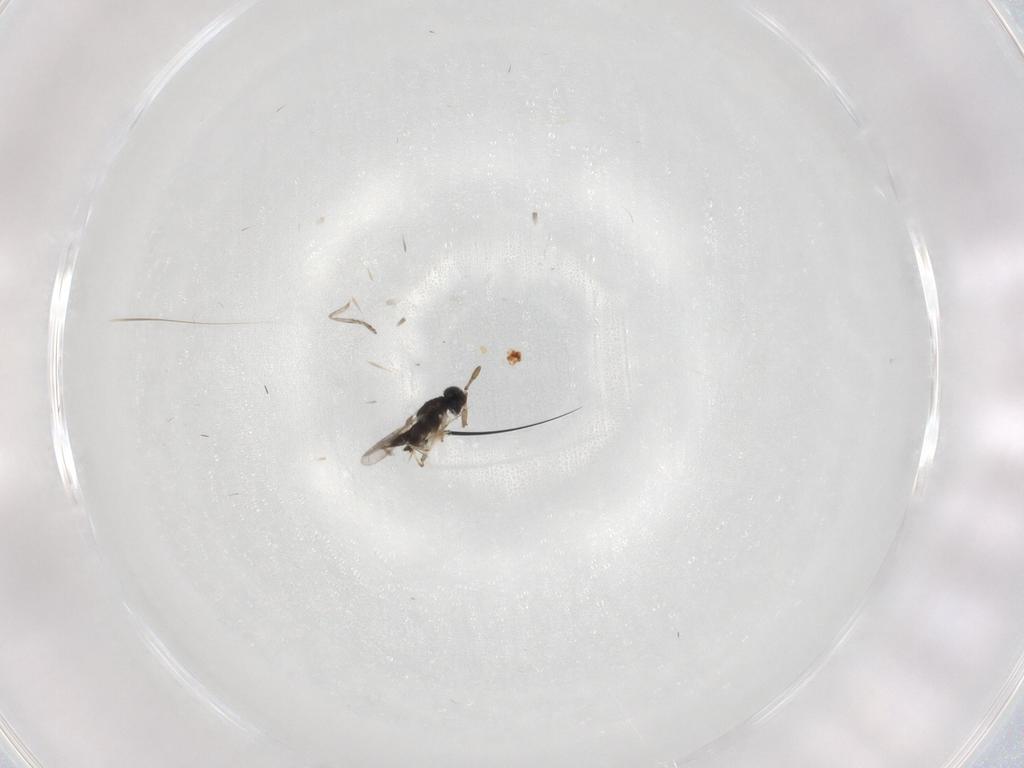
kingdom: Animalia
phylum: Arthropoda
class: Insecta
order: Hymenoptera
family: Encyrtidae
